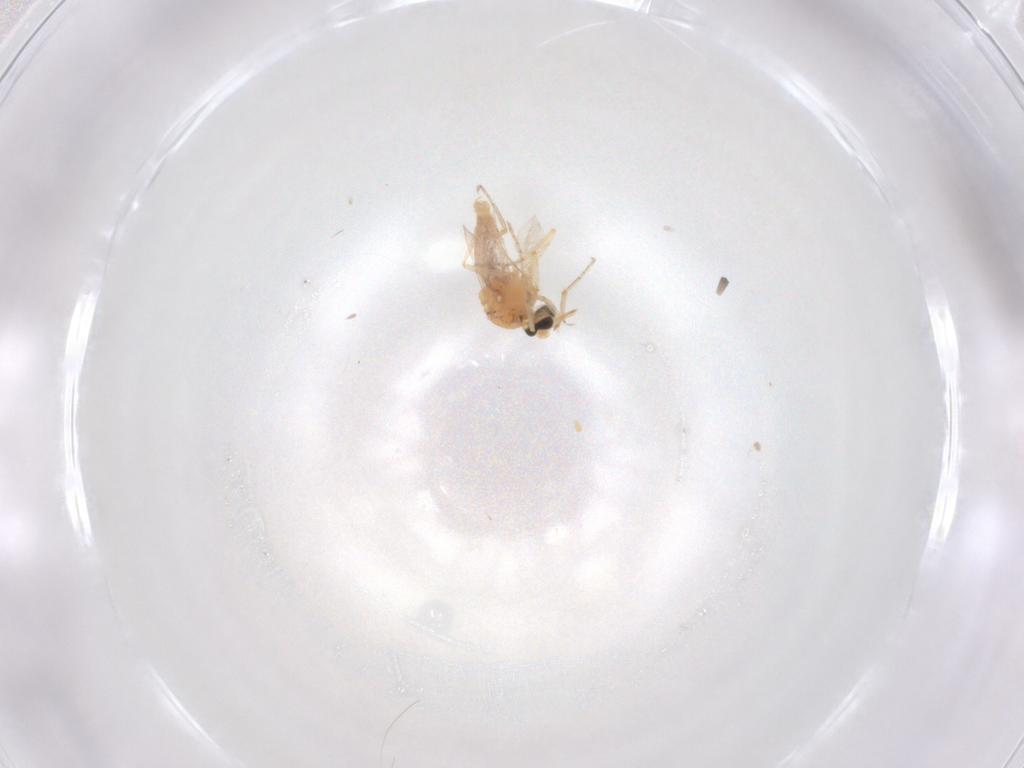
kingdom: Animalia
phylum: Arthropoda
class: Insecta
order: Diptera
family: Ceratopogonidae
